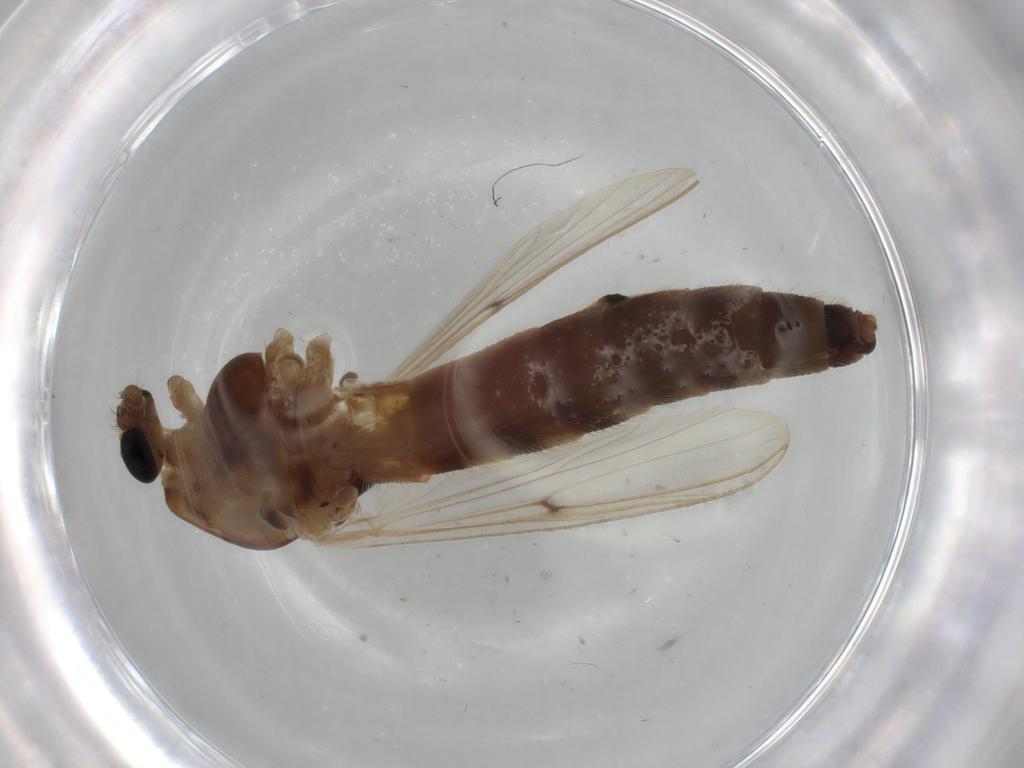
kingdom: Animalia
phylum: Arthropoda
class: Insecta
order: Diptera
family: Chironomidae
